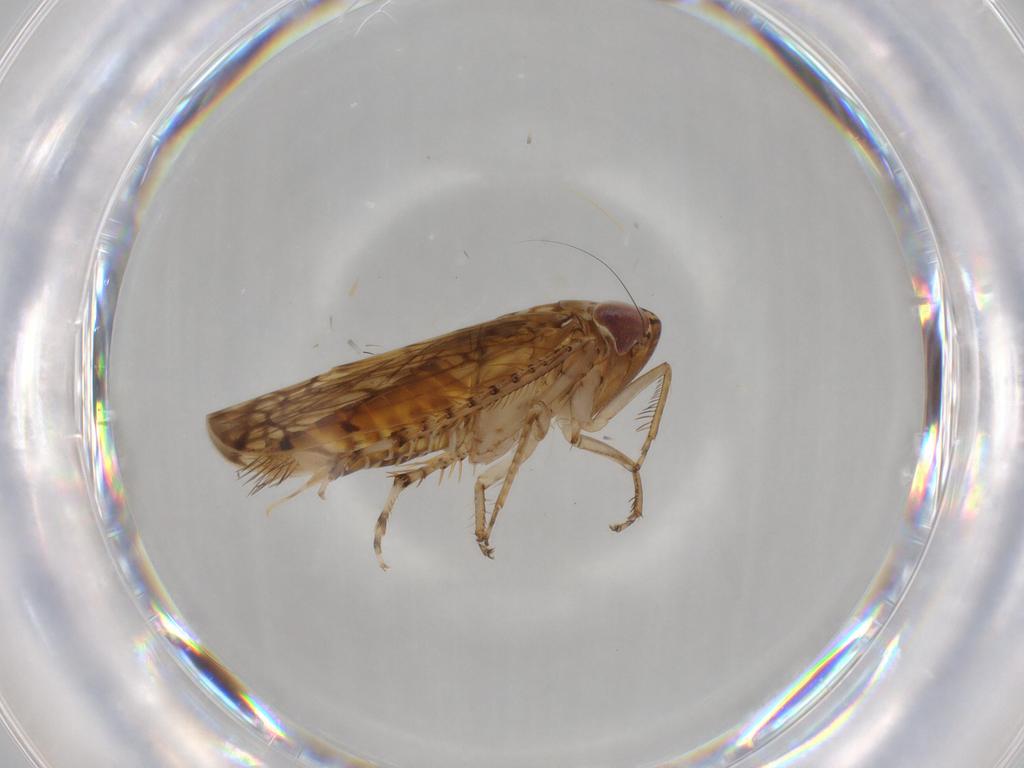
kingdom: Animalia
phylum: Arthropoda
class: Insecta
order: Hemiptera
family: Cicadellidae
